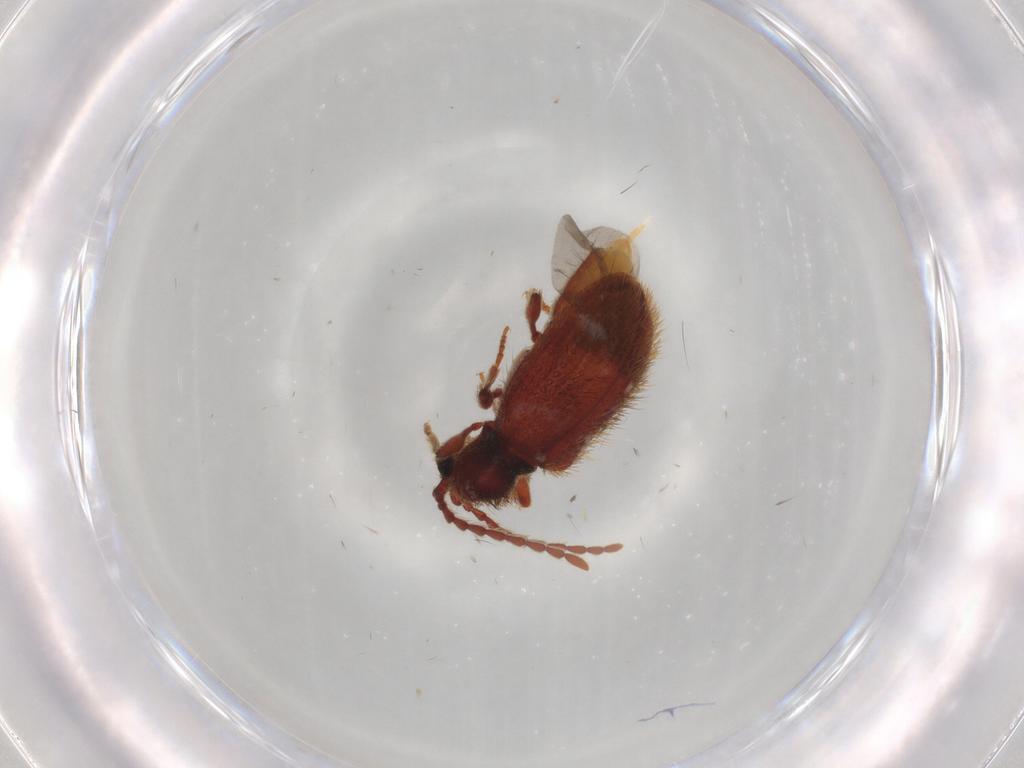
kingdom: Animalia
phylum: Arthropoda
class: Insecta
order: Coleoptera
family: Ptinidae
